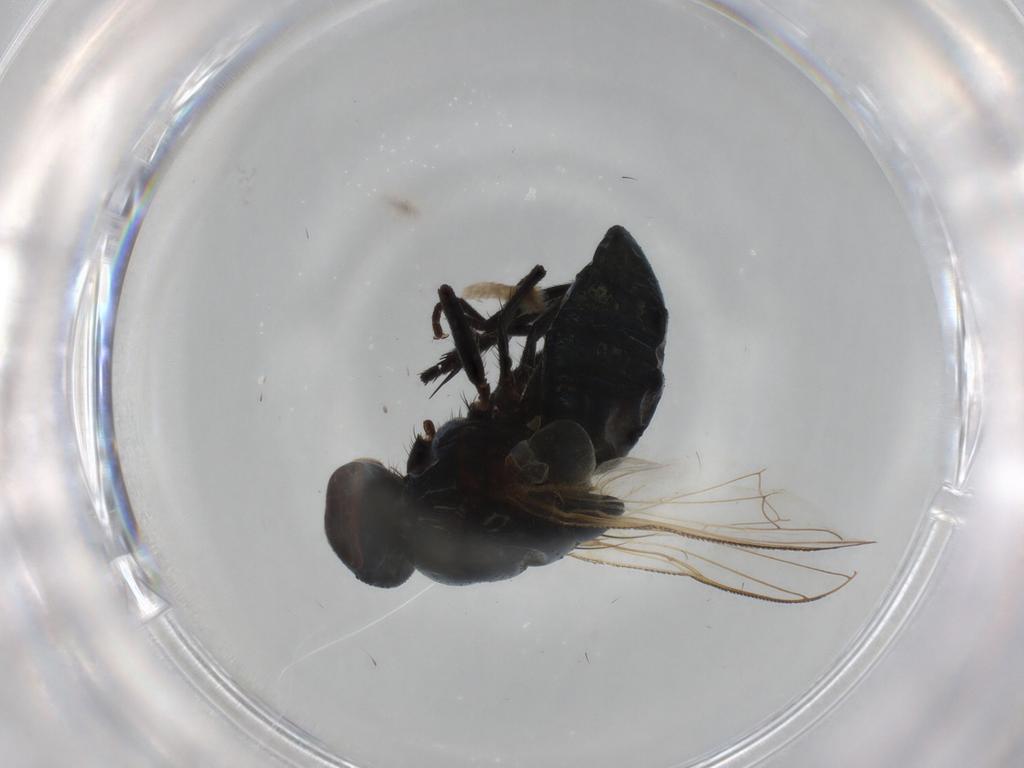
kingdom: Animalia
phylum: Arthropoda
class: Insecta
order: Diptera
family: Muscidae
